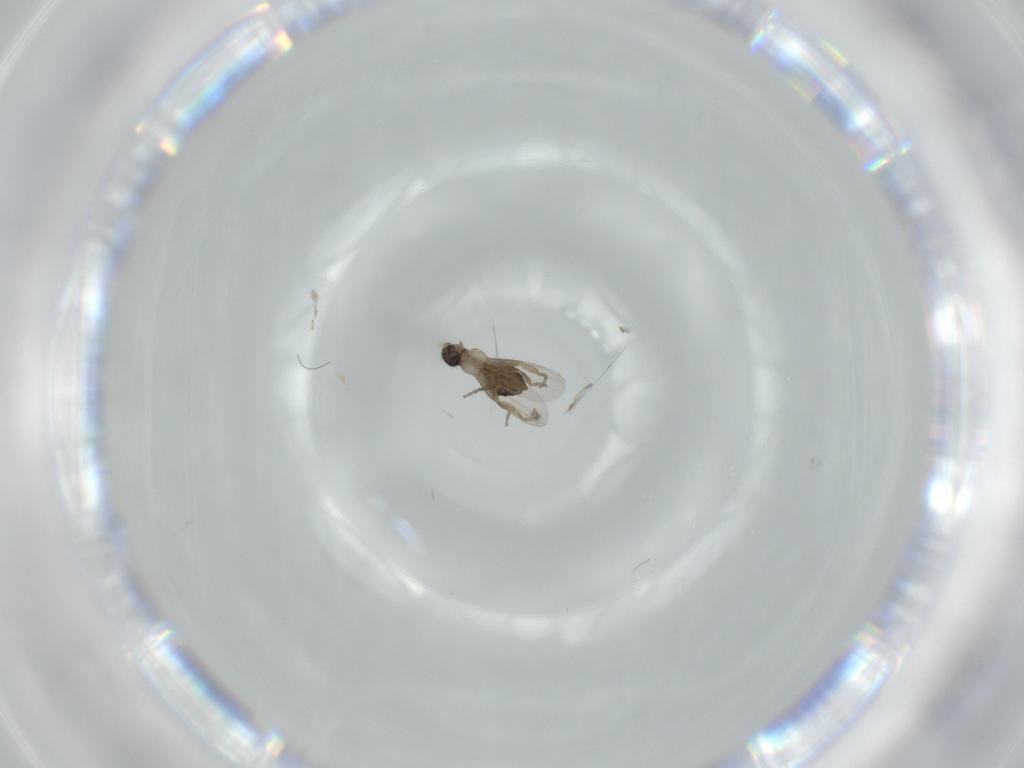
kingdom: Animalia
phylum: Arthropoda
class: Insecta
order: Diptera
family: Phoridae
